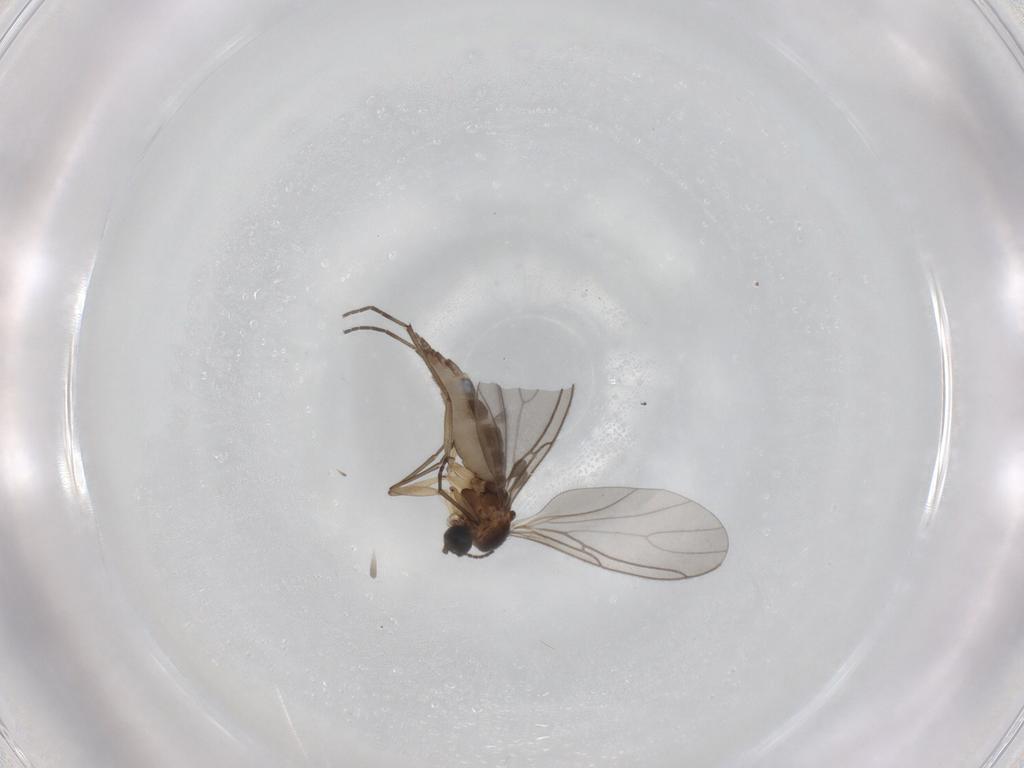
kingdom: Animalia
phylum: Arthropoda
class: Insecta
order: Diptera
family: Sciaridae
